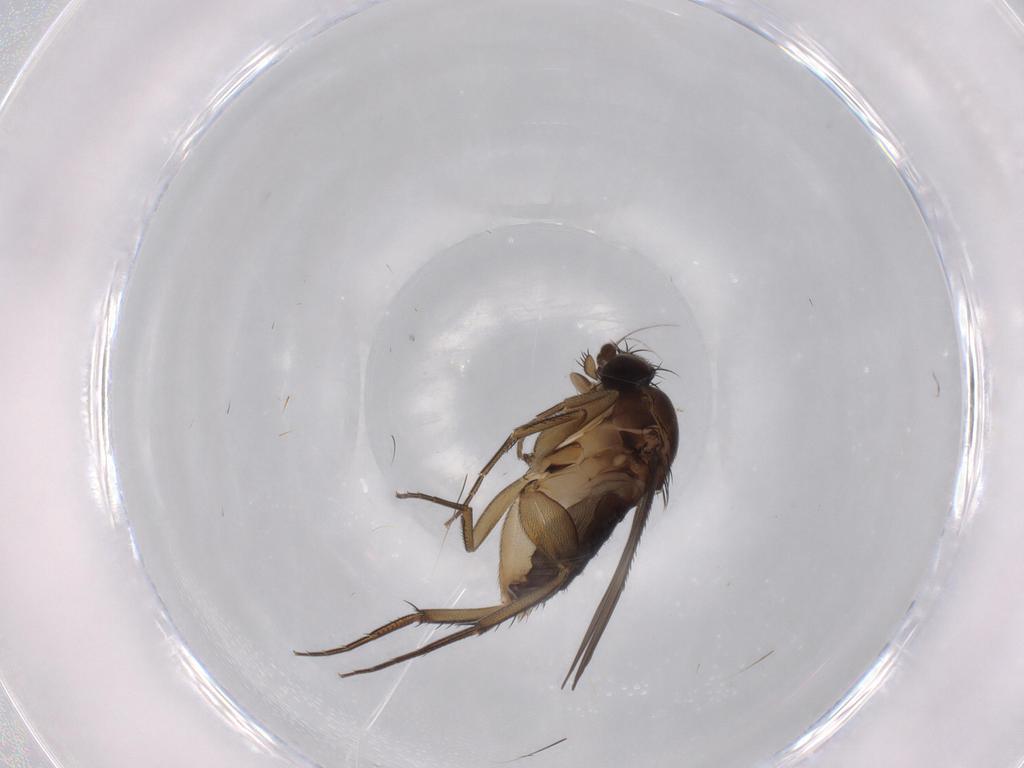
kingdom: Animalia
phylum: Arthropoda
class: Insecta
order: Diptera
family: Phoridae
